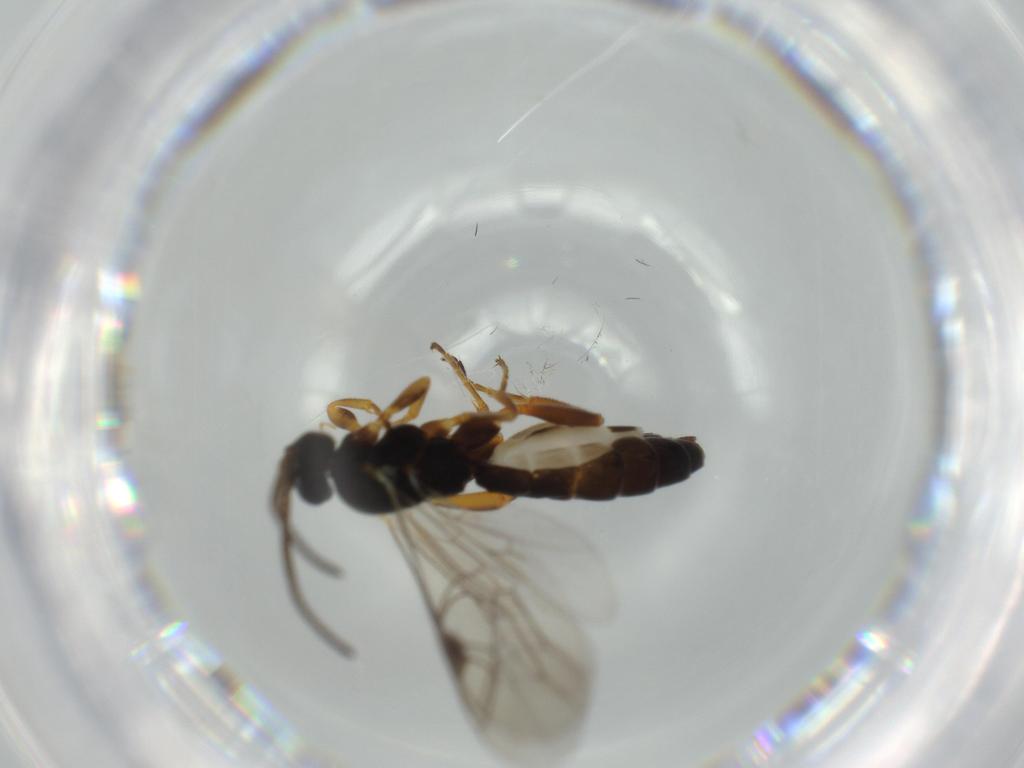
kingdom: Animalia
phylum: Arthropoda
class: Insecta
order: Hymenoptera
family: Ichneumonidae
